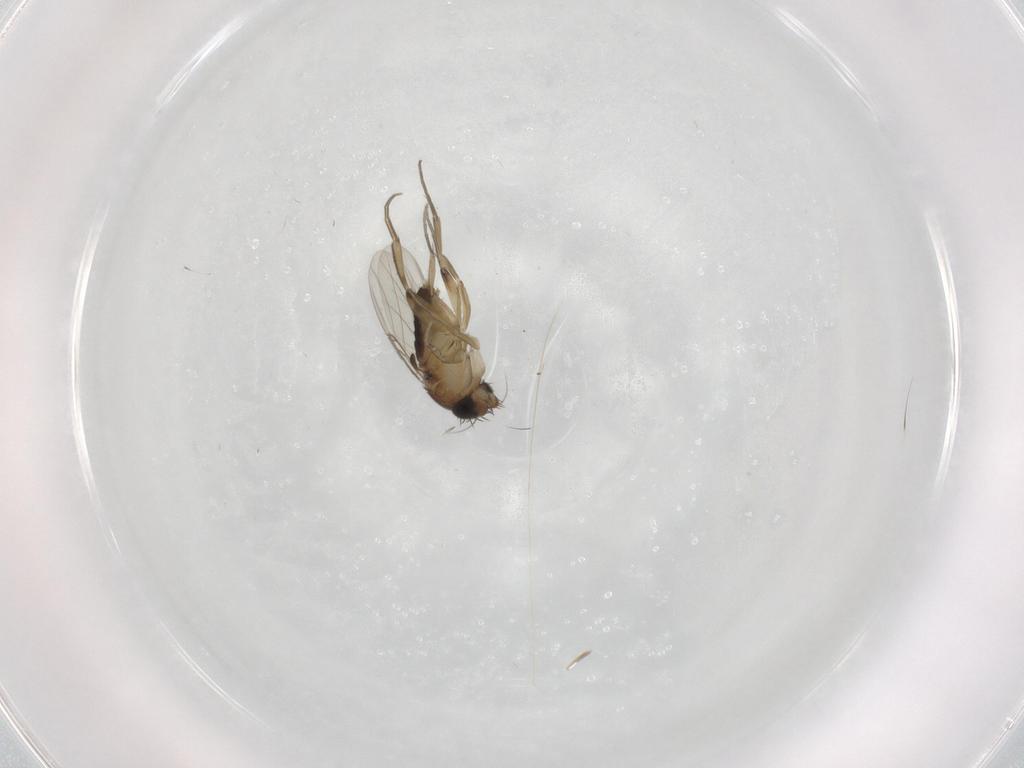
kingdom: Animalia
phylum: Arthropoda
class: Insecta
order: Diptera
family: Phoridae
